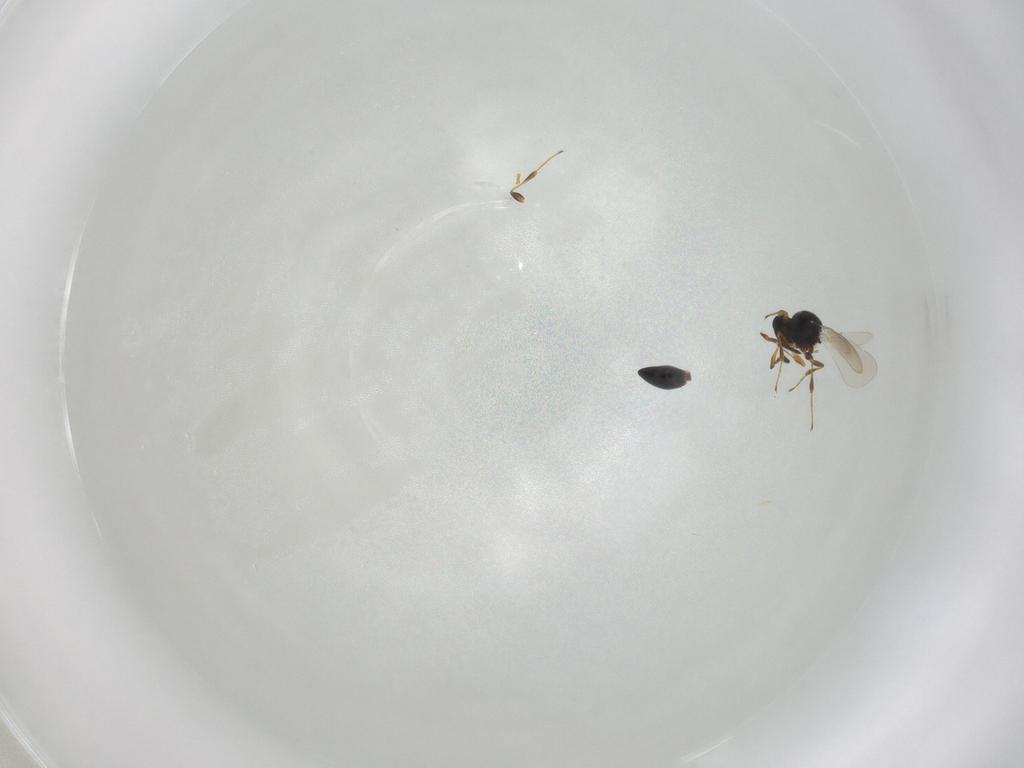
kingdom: Animalia
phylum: Arthropoda
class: Insecta
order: Hymenoptera
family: Platygastridae
